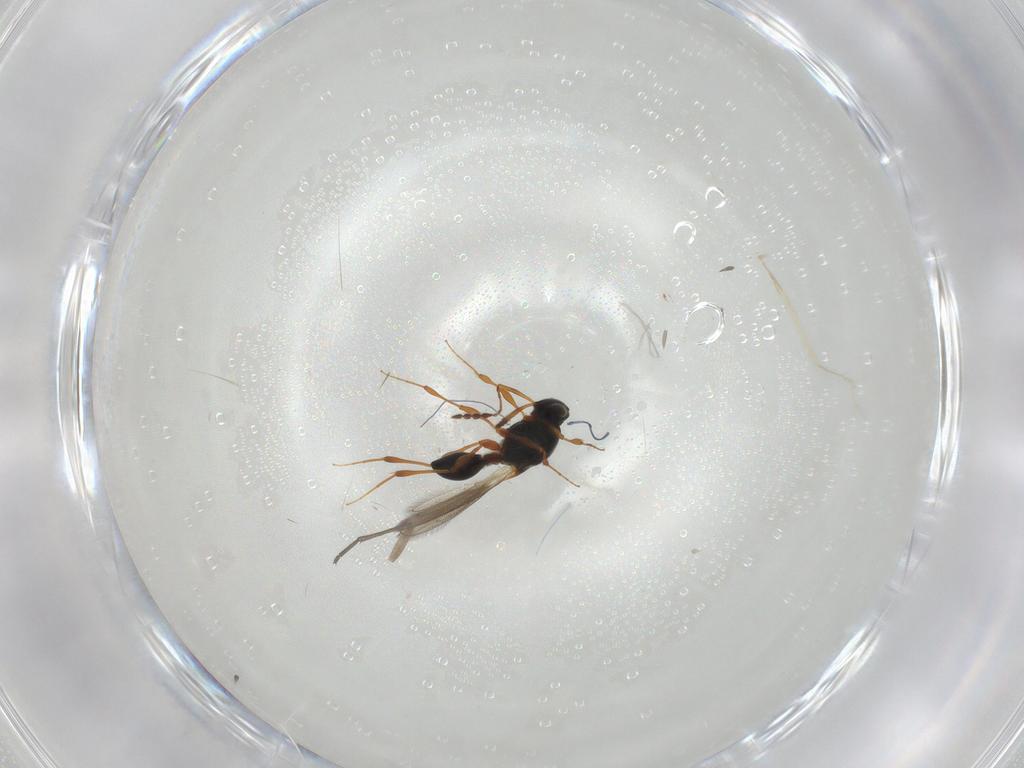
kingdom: Animalia
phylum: Arthropoda
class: Insecta
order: Hymenoptera
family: Platygastridae
